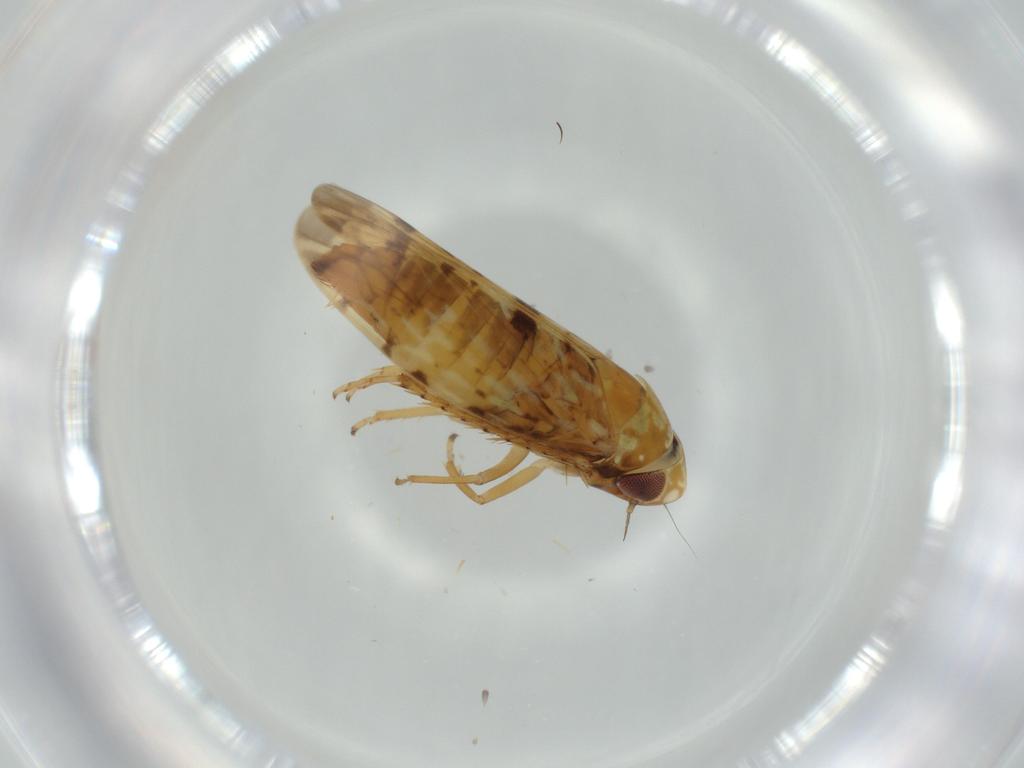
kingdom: Animalia
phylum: Arthropoda
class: Insecta
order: Hemiptera
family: Cicadellidae
